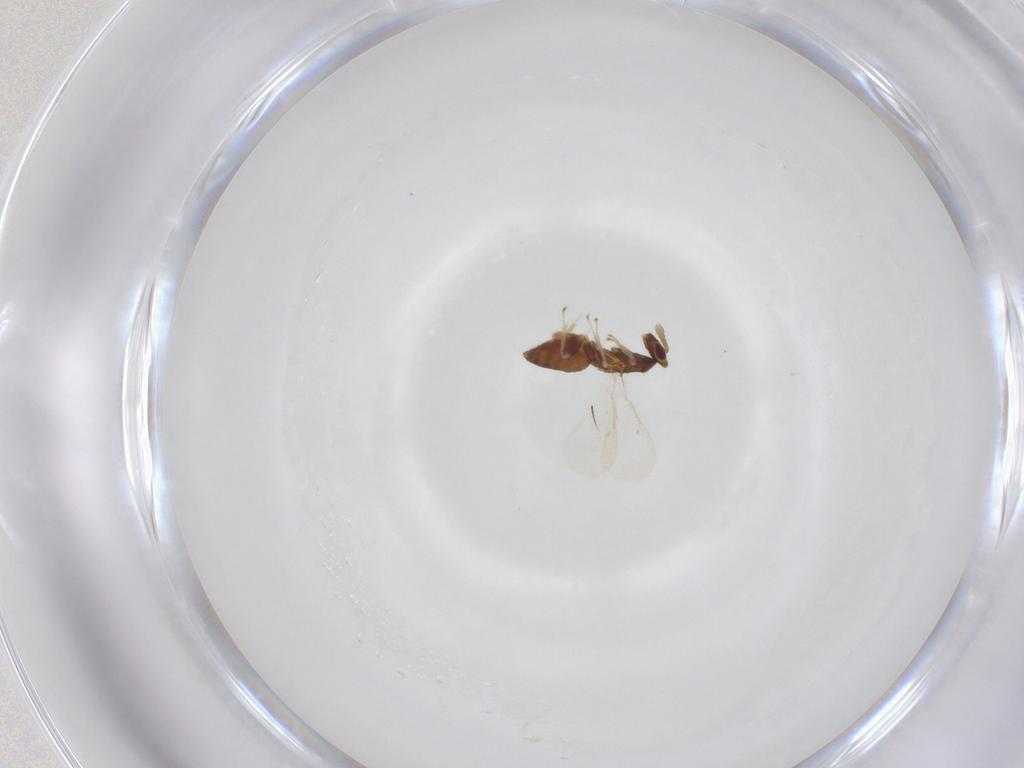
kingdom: Animalia
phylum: Arthropoda
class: Insecta
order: Hymenoptera
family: Eulophidae
